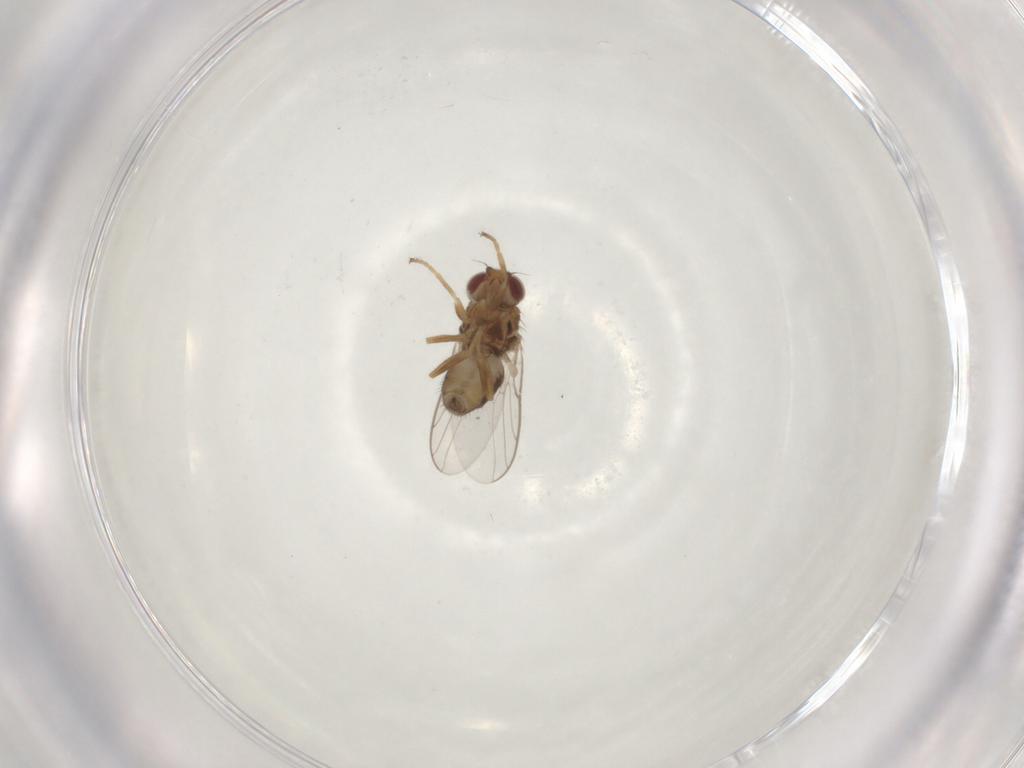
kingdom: Animalia
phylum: Arthropoda
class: Insecta
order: Diptera
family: Chloropidae
